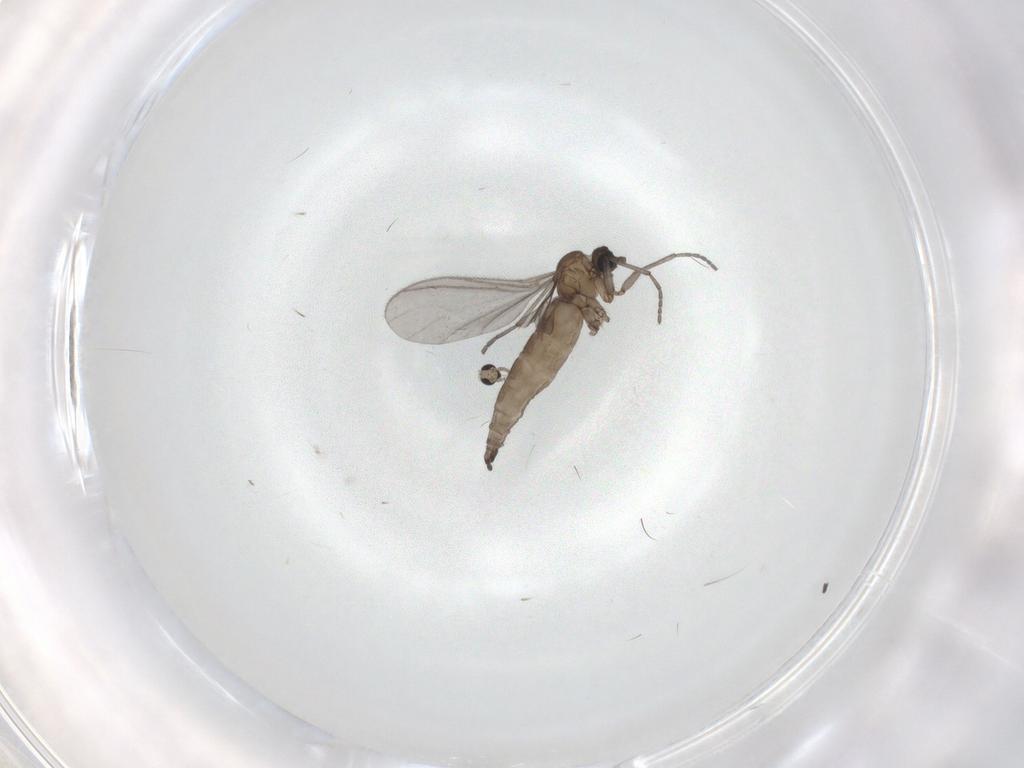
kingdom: Animalia
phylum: Arthropoda
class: Insecta
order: Diptera
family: Sciaridae
